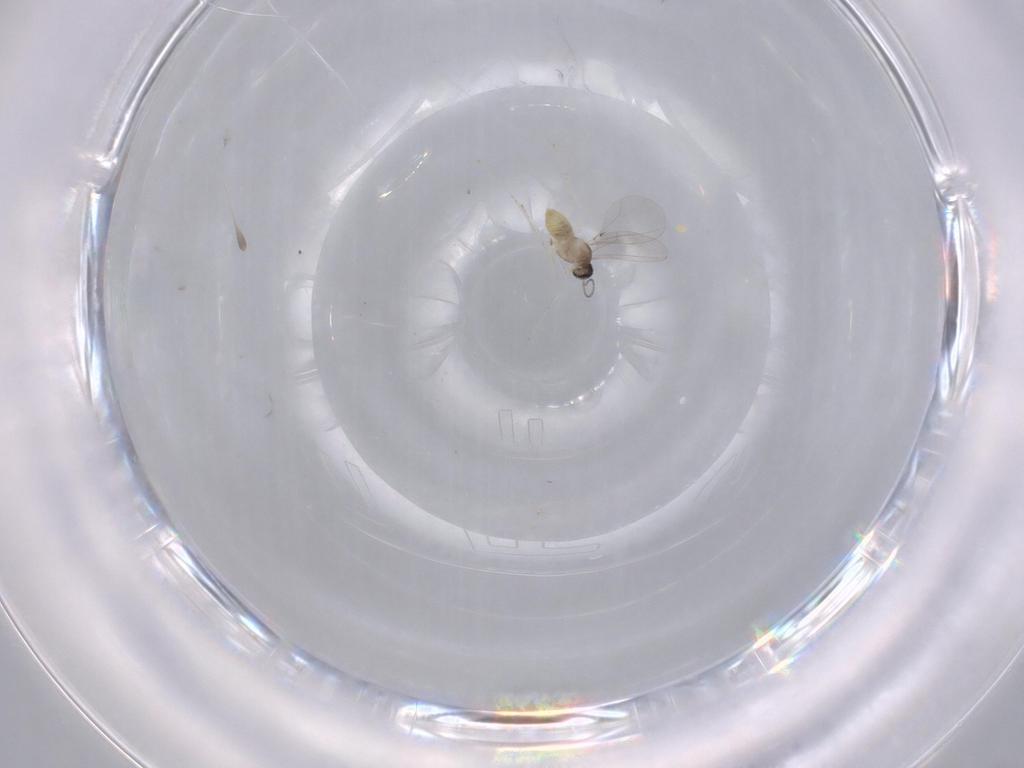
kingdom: Animalia
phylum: Arthropoda
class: Insecta
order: Diptera
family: Cecidomyiidae
